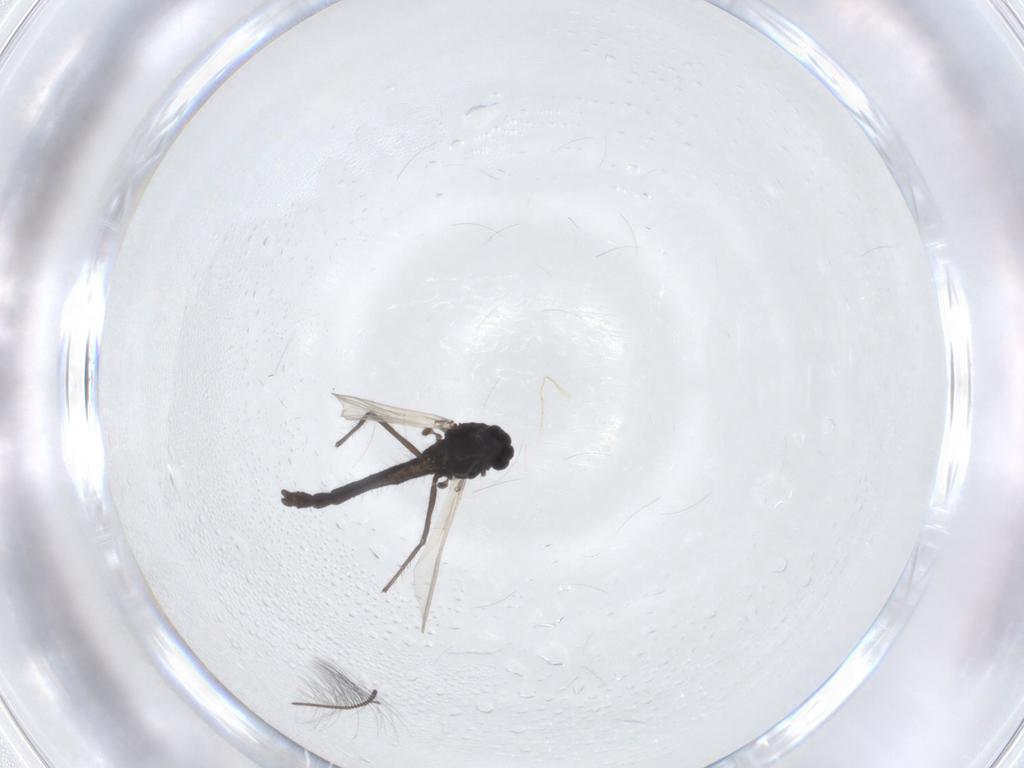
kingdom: Animalia
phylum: Arthropoda
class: Insecta
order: Diptera
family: Chironomidae
